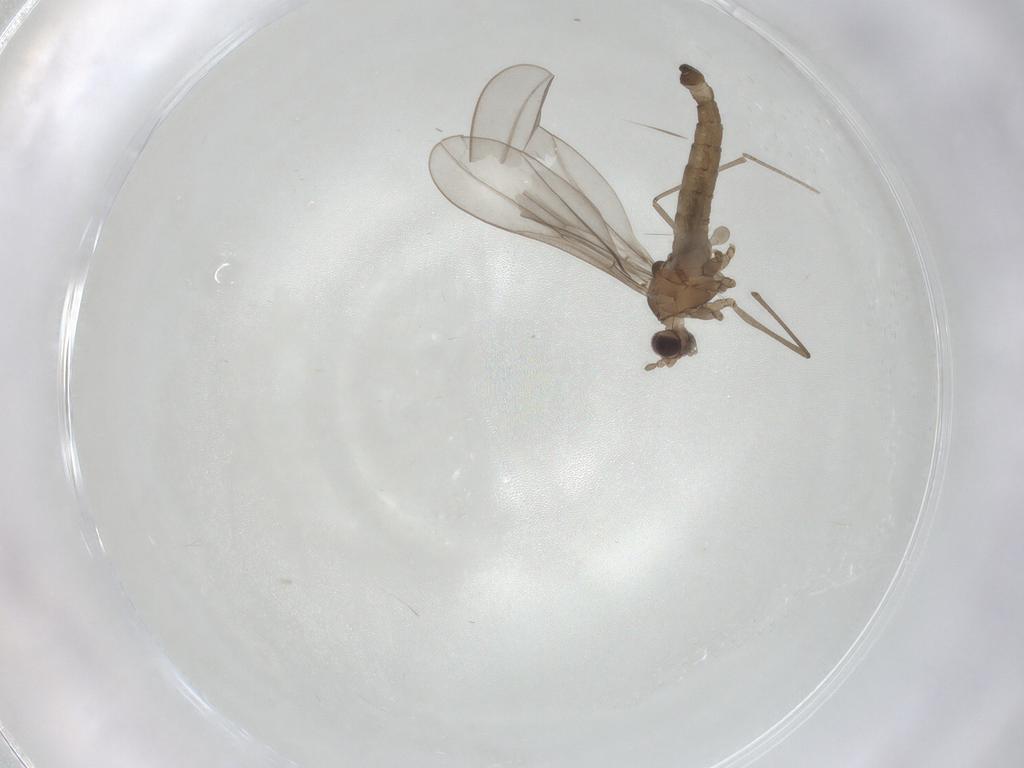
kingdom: Animalia
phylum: Arthropoda
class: Insecta
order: Diptera
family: Cecidomyiidae
